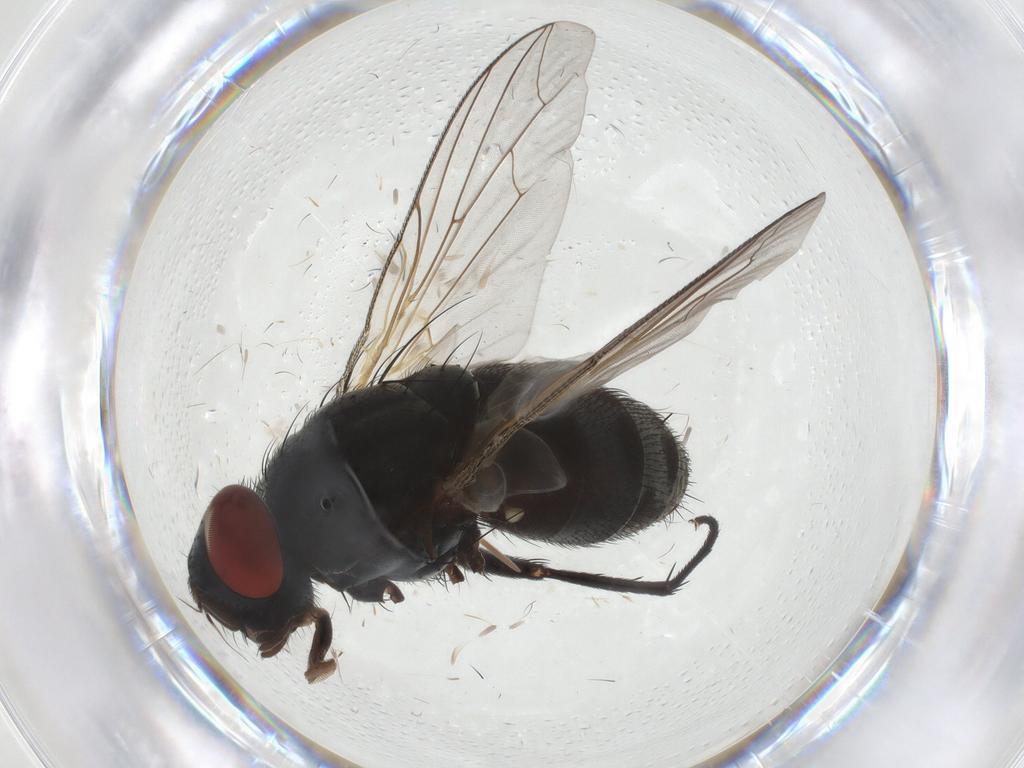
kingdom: Animalia
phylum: Arthropoda
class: Insecta
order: Diptera
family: Sarcophagidae
